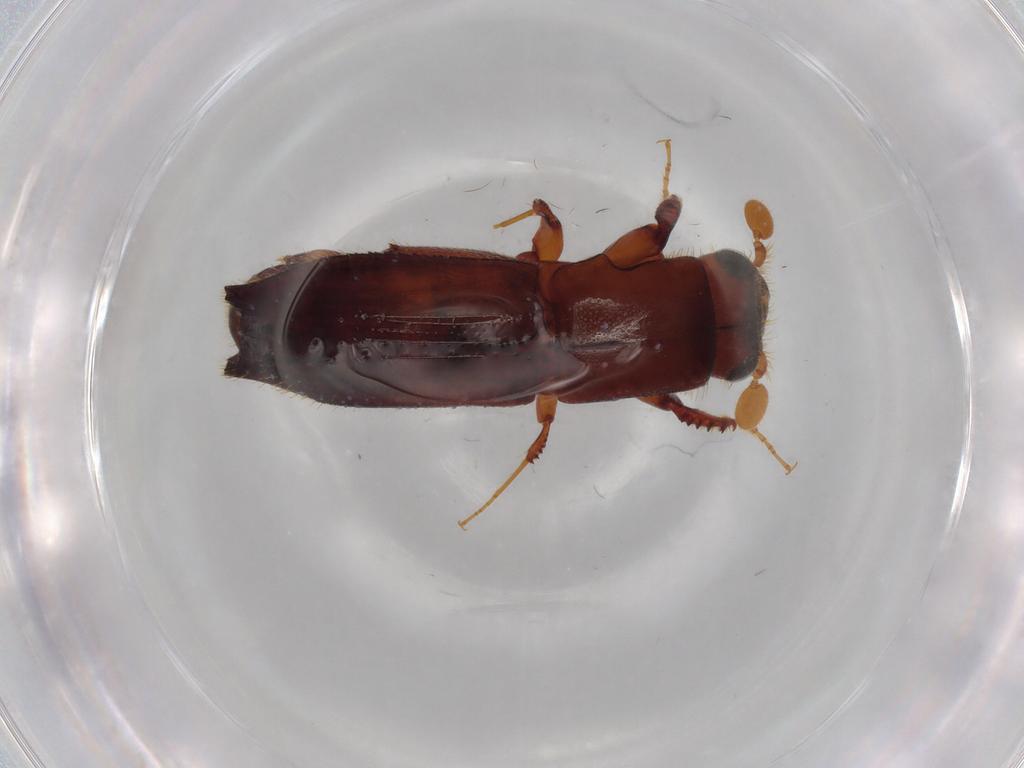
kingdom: Animalia
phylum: Arthropoda
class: Insecta
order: Coleoptera
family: Curculionidae
